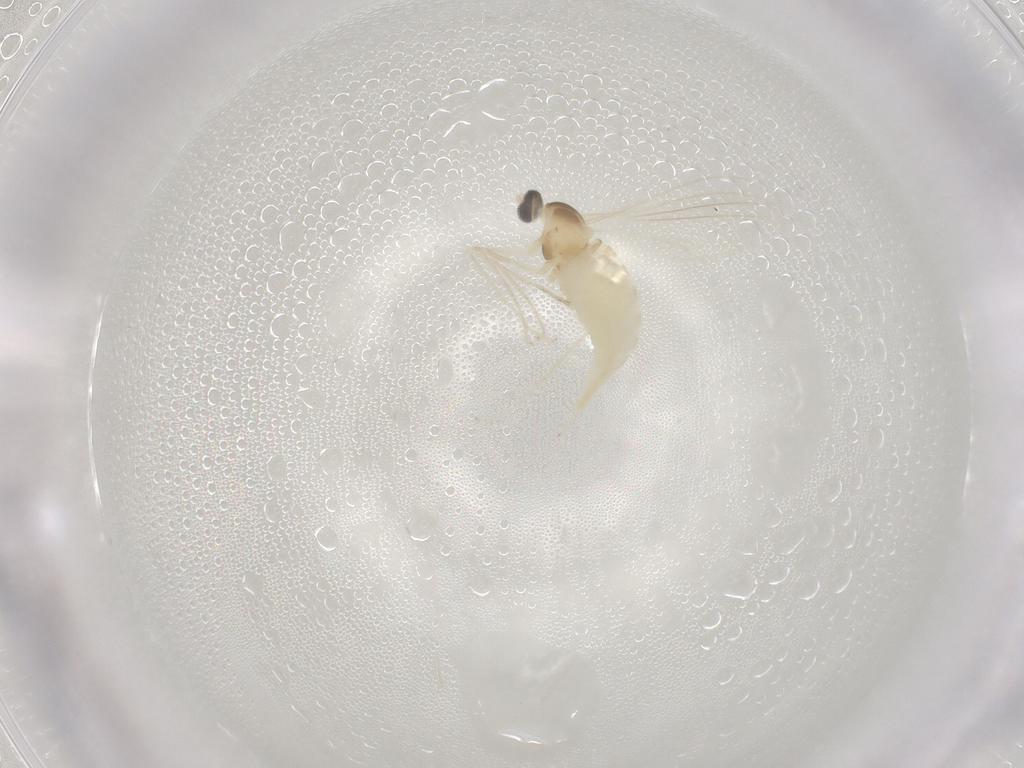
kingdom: Animalia
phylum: Arthropoda
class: Insecta
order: Diptera
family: Cecidomyiidae
